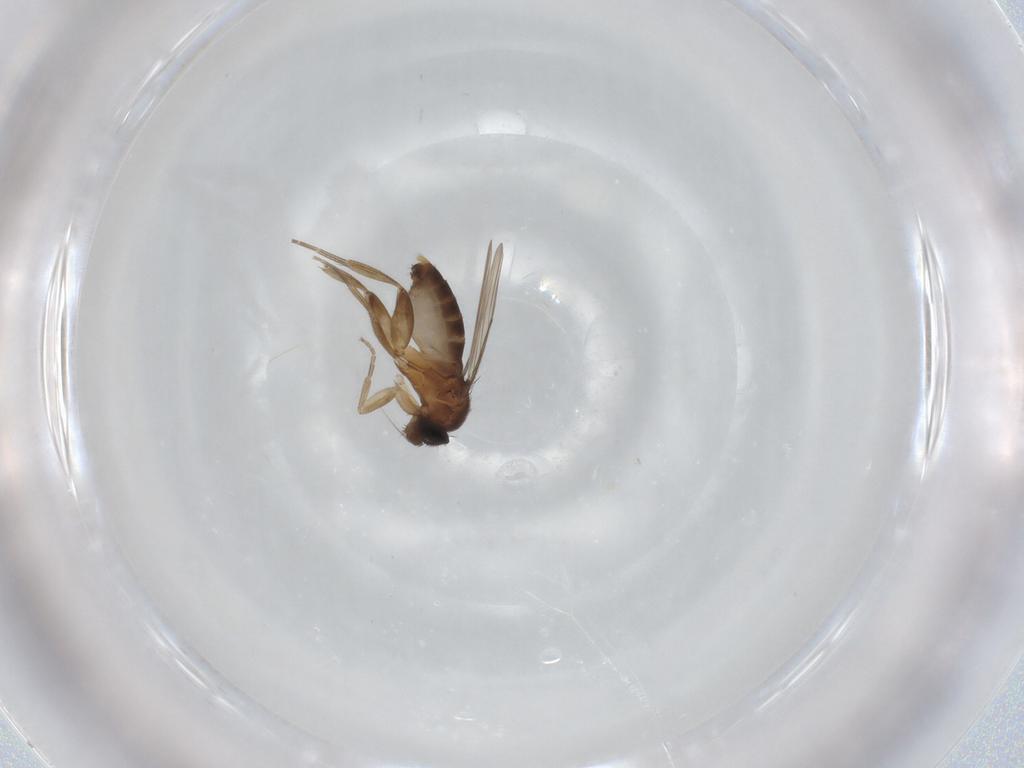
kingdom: Animalia
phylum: Arthropoda
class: Insecta
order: Diptera
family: Phoridae
